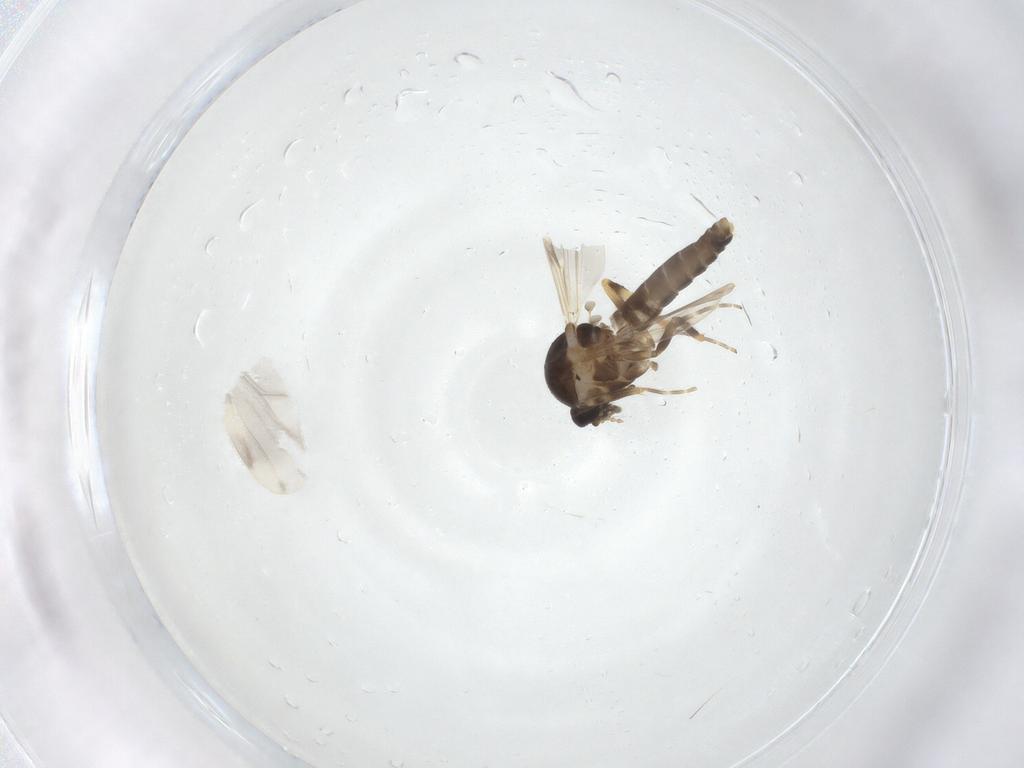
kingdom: Animalia
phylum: Arthropoda
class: Insecta
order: Diptera
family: Ceratopogonidae
